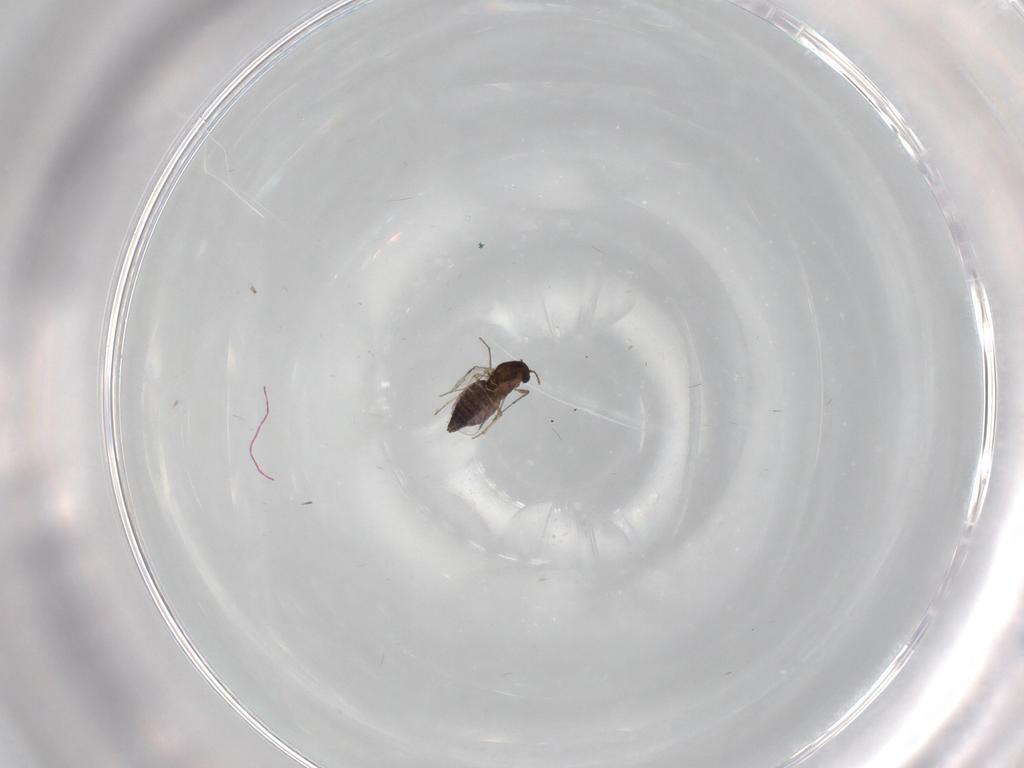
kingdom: Animalia
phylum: Arthropoda
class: Insecta
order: Diptera
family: Chironomidae
